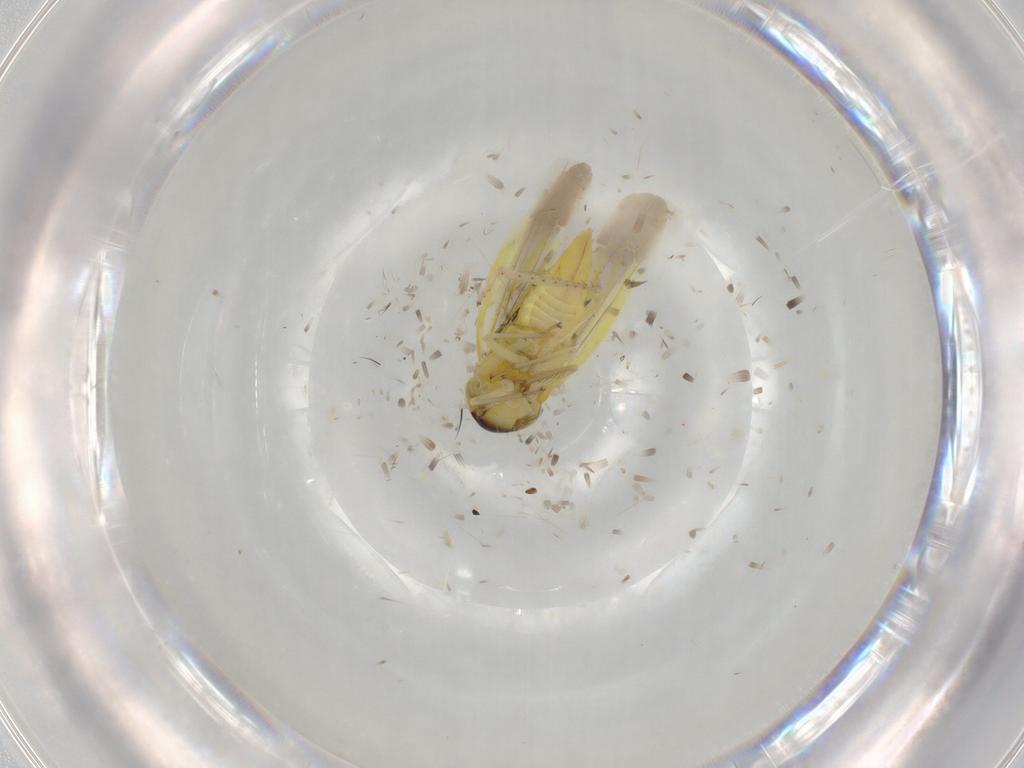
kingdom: Animalia
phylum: Arthropoda
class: Insecta
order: Hemiptera
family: Cicadellidae
